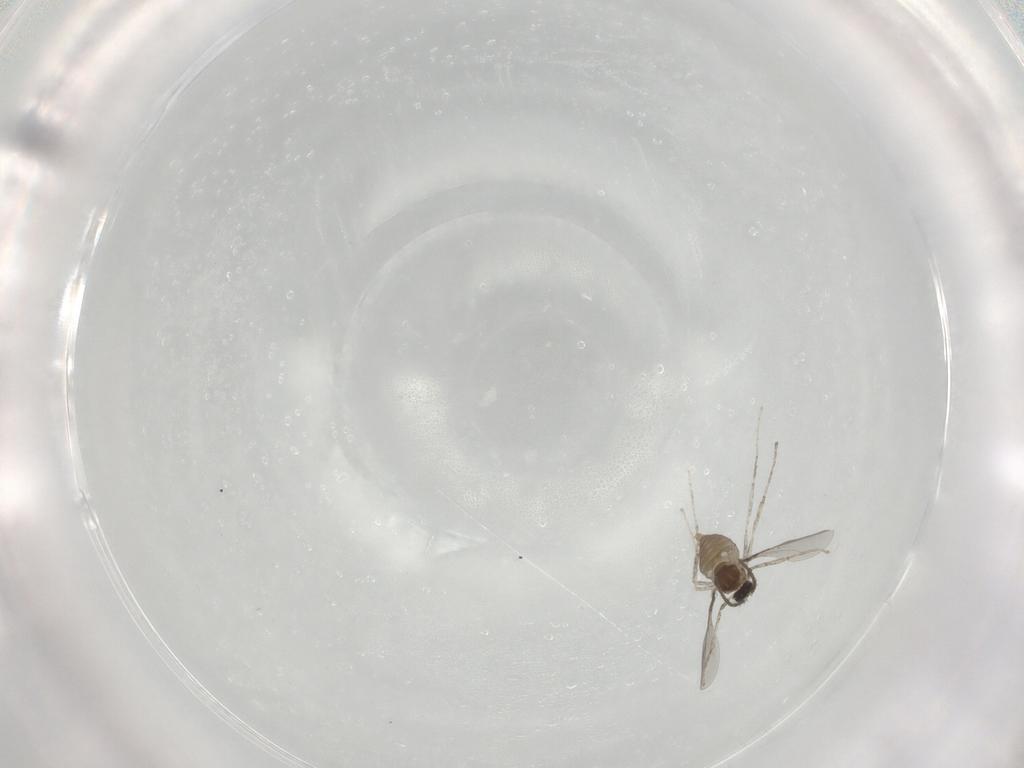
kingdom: Animalia
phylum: Arthropoda
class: Insecta
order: Diptera
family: Cecidomyiidae
